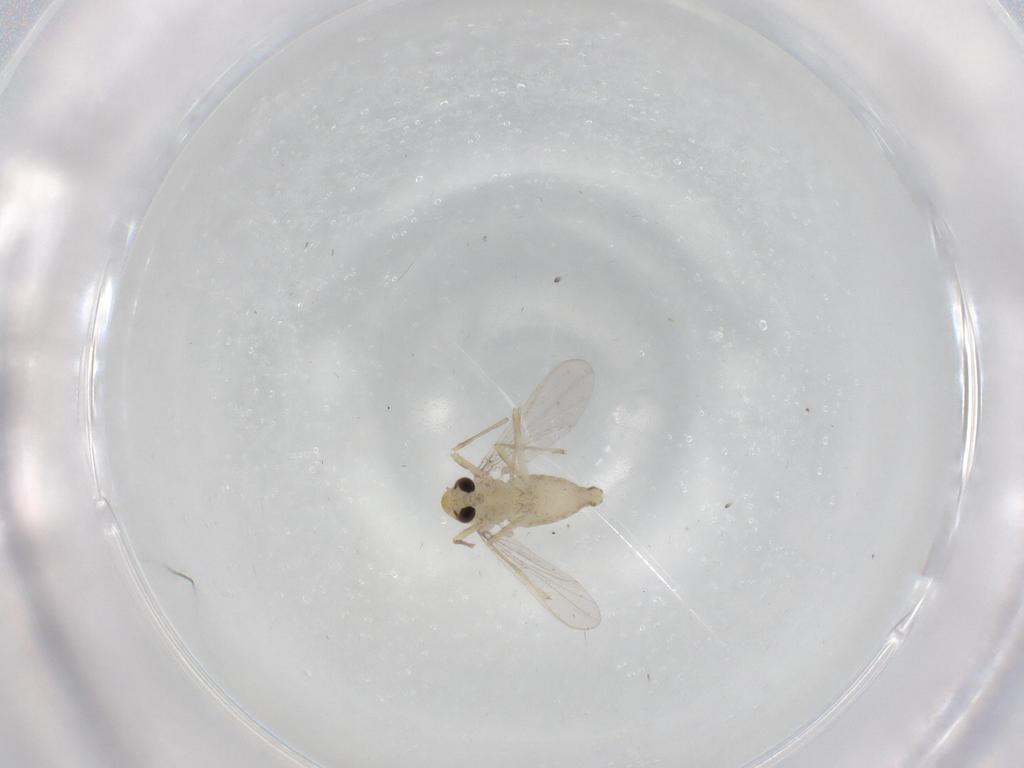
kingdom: Animalia
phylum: Arthropoda
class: Insecta
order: Diptera
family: Chironomidae
